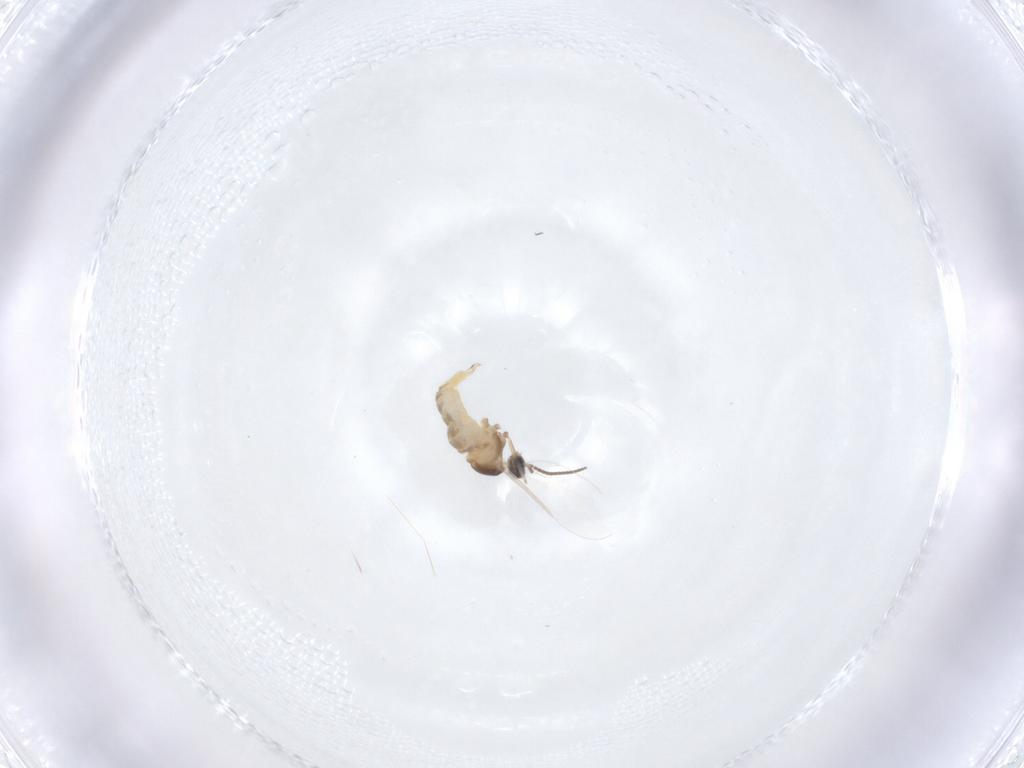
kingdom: Animalia
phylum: Arthropoda
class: Insecta
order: Diptera
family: Cecidomyiidae
